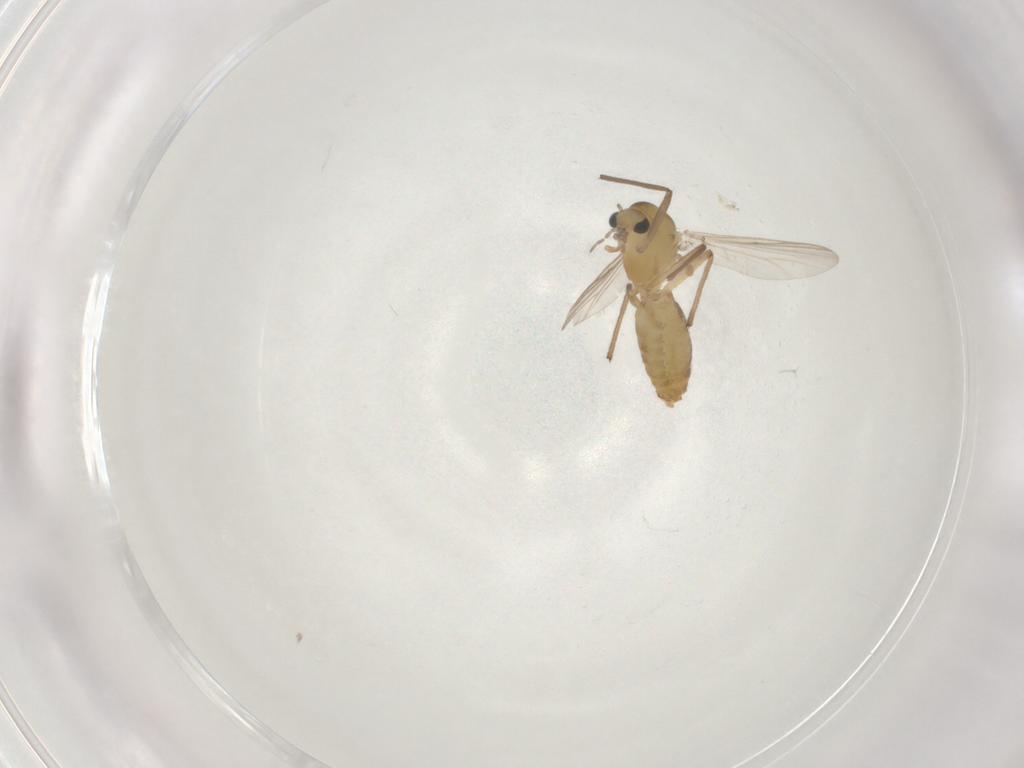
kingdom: Animalia
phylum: Arthropoda
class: Insecta
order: Diptera
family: Chironomidae
